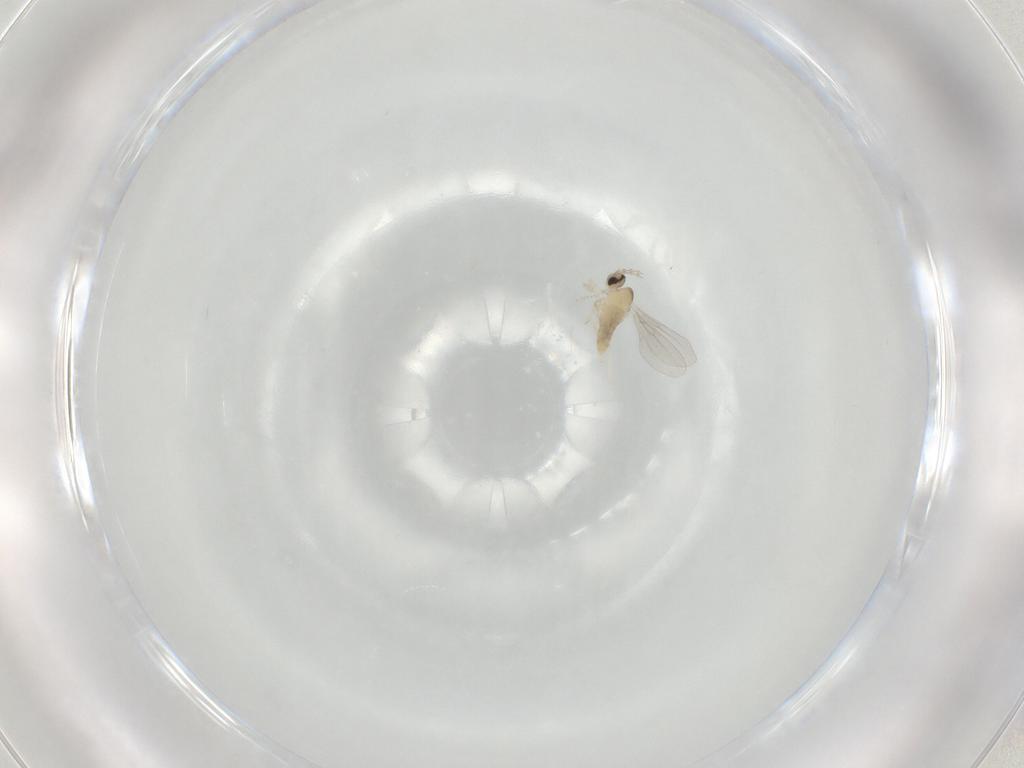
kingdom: Animalia
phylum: Arthropoda
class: Insecta
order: Diptera
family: Cecidomyiidae
